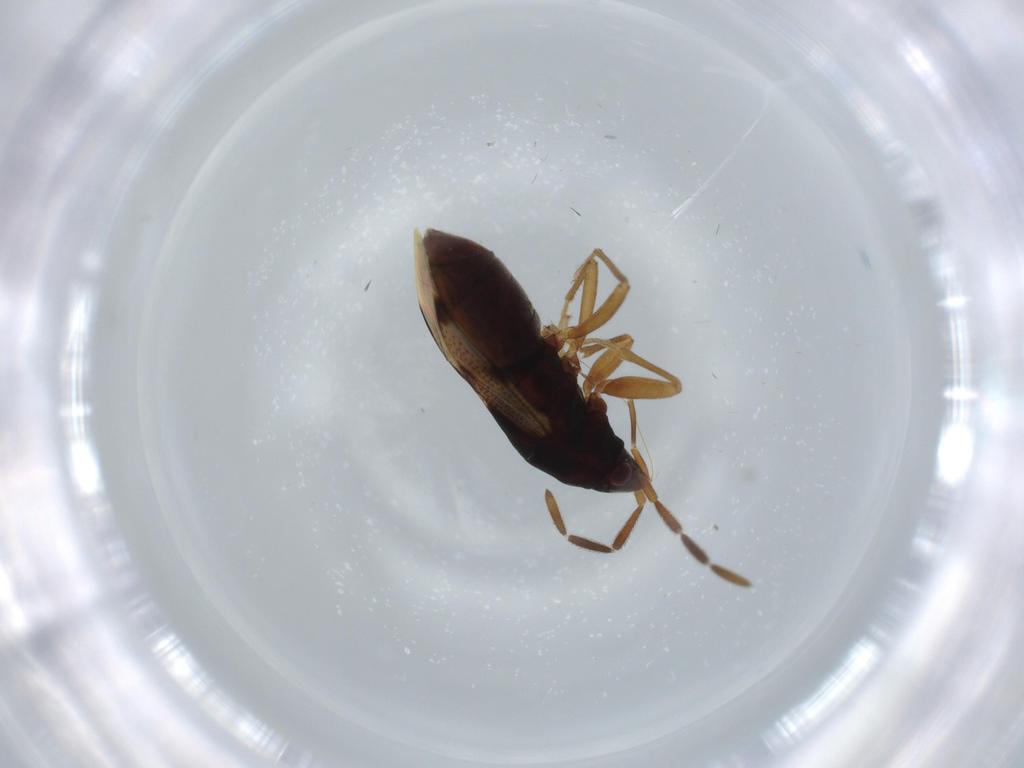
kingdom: Animalia
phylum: Arthropoda
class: Insecta
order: Hemiptera
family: Rhyparochromidae
